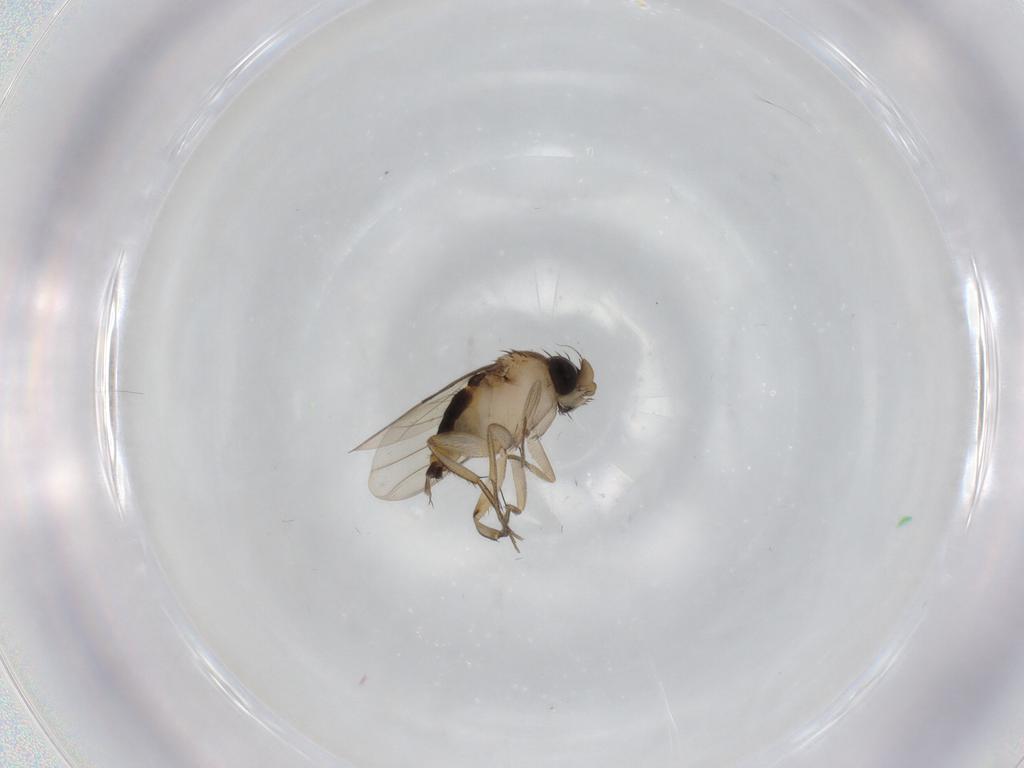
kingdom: Animalia
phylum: Arthropoda
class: Insecta
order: Diptera
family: Phoridae
